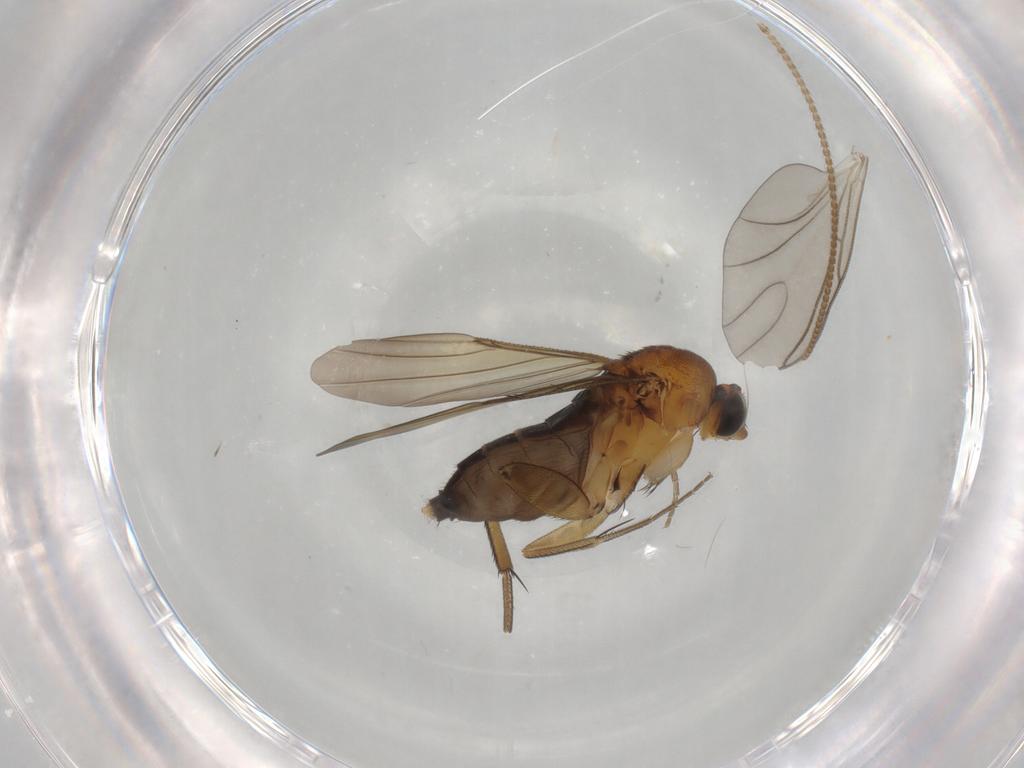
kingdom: Animalia
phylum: Arthropoda
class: Insecta
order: Diptera
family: Phoridae
